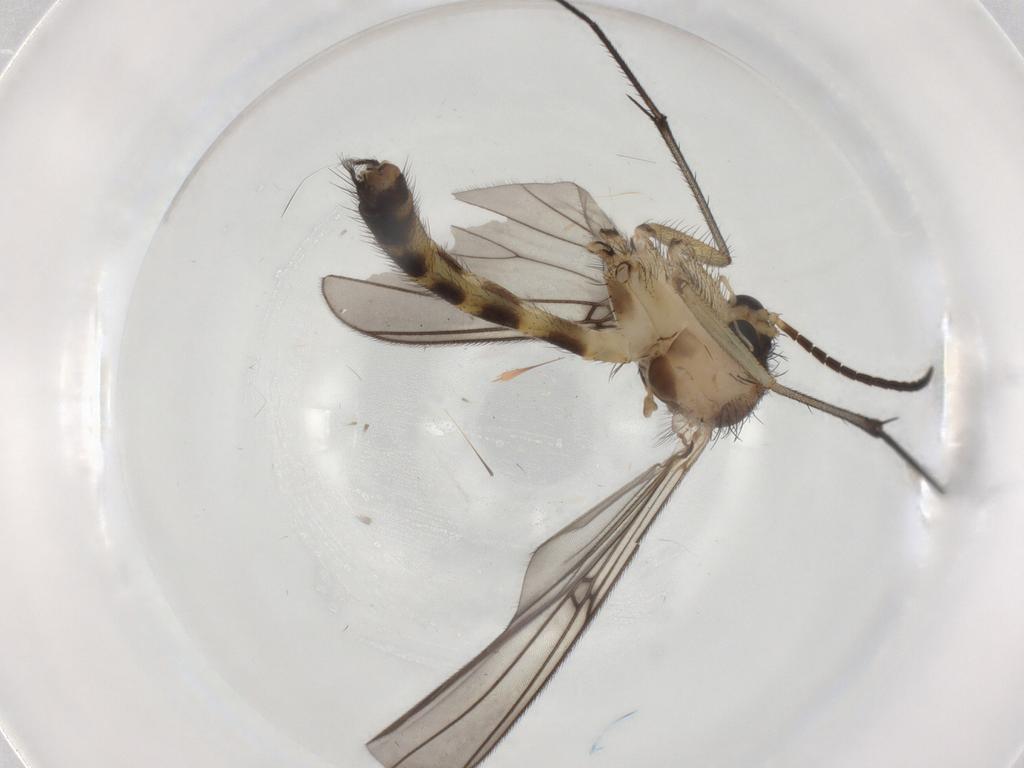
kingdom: Animalia
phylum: Arthropoda
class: Insecta
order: Diptera
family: Mycetophilidae
